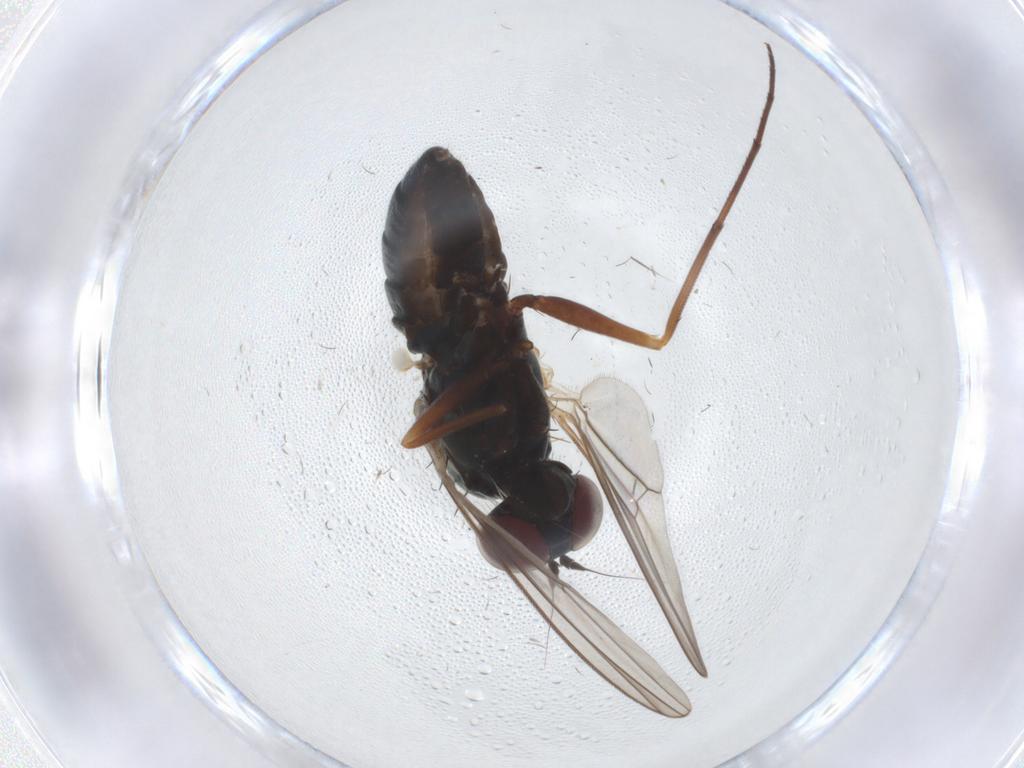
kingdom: Animalia
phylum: Arthropoda
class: Insecta
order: Diptera
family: Dolichopodidae
